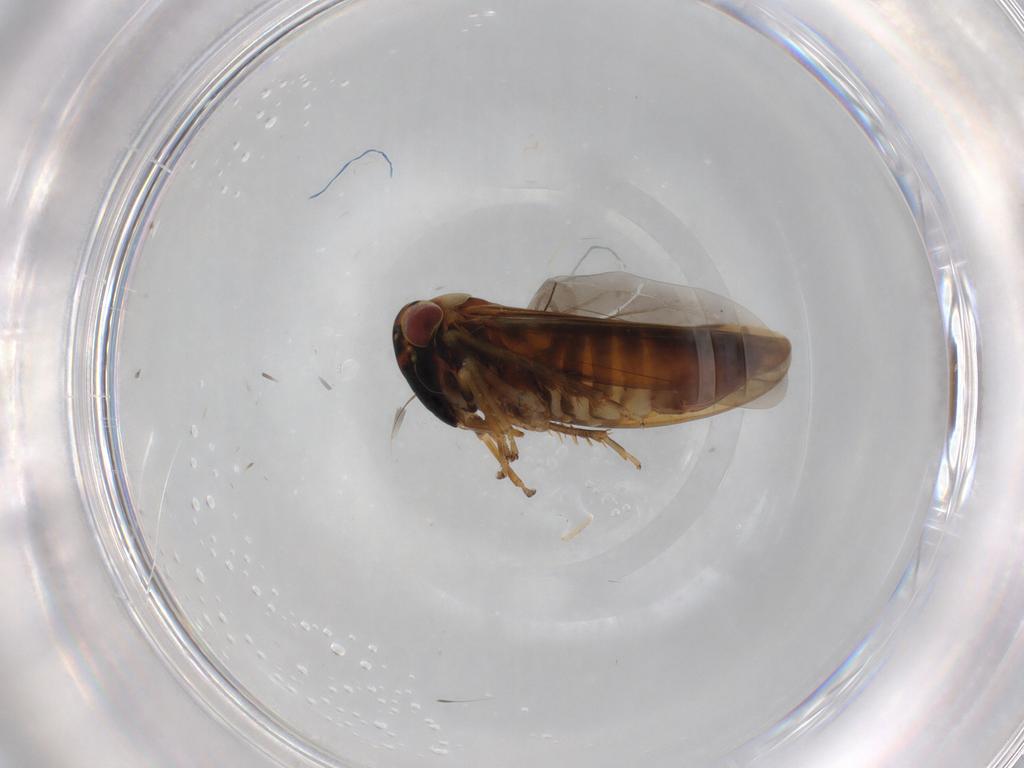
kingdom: Animalia
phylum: Arthropoda
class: Insecta
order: Hemiptera
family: Cicadellidae
